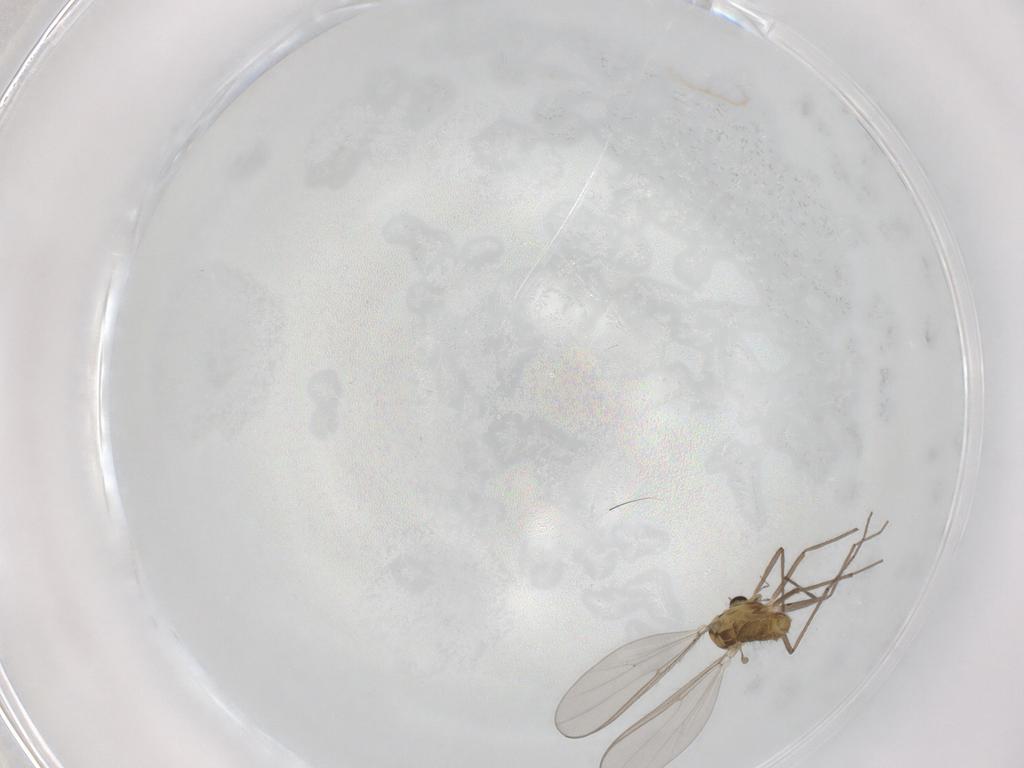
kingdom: Animalia
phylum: Arthropoda
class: Insecta
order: Diptera
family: Chironomidae
